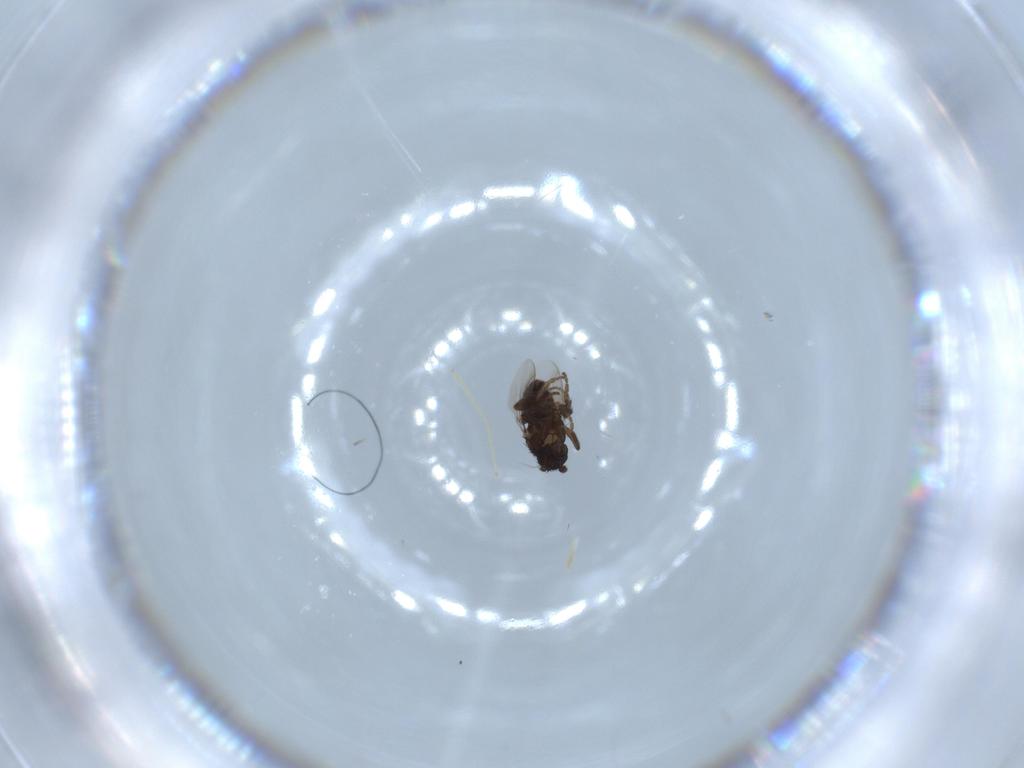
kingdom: Animalia
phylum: Arthropoda
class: Insecta
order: Diptera
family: Chironomidae
